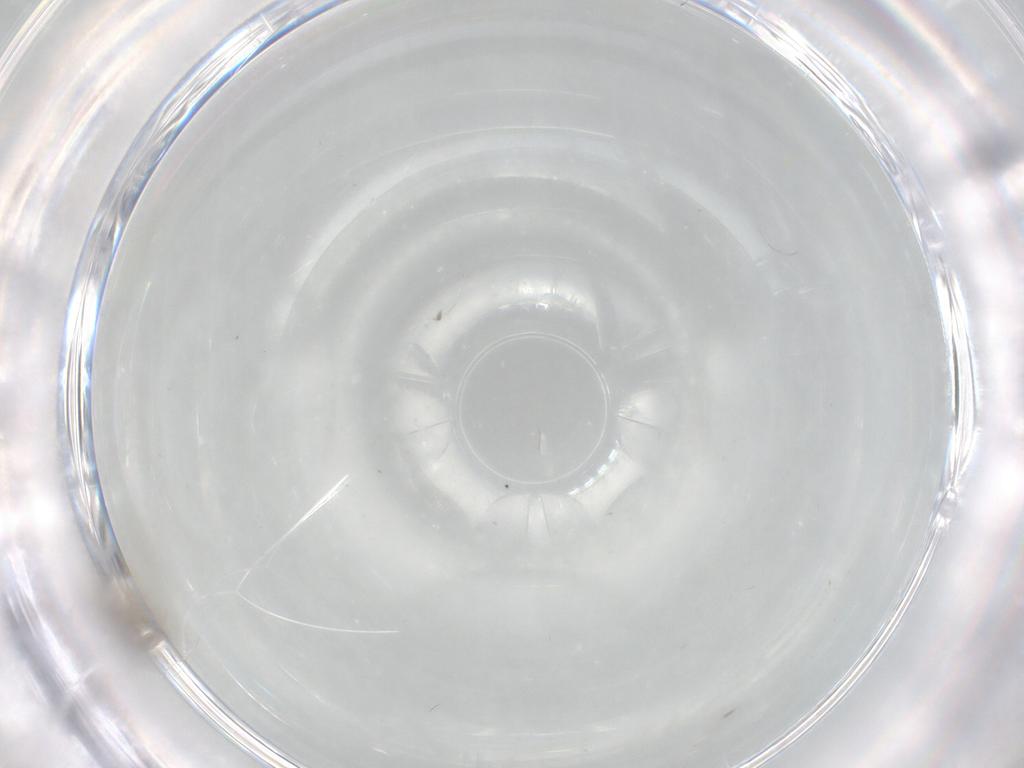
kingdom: Animalia
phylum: Arthropoda
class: Insecta
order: Diptera
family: Cecidomyiidae
